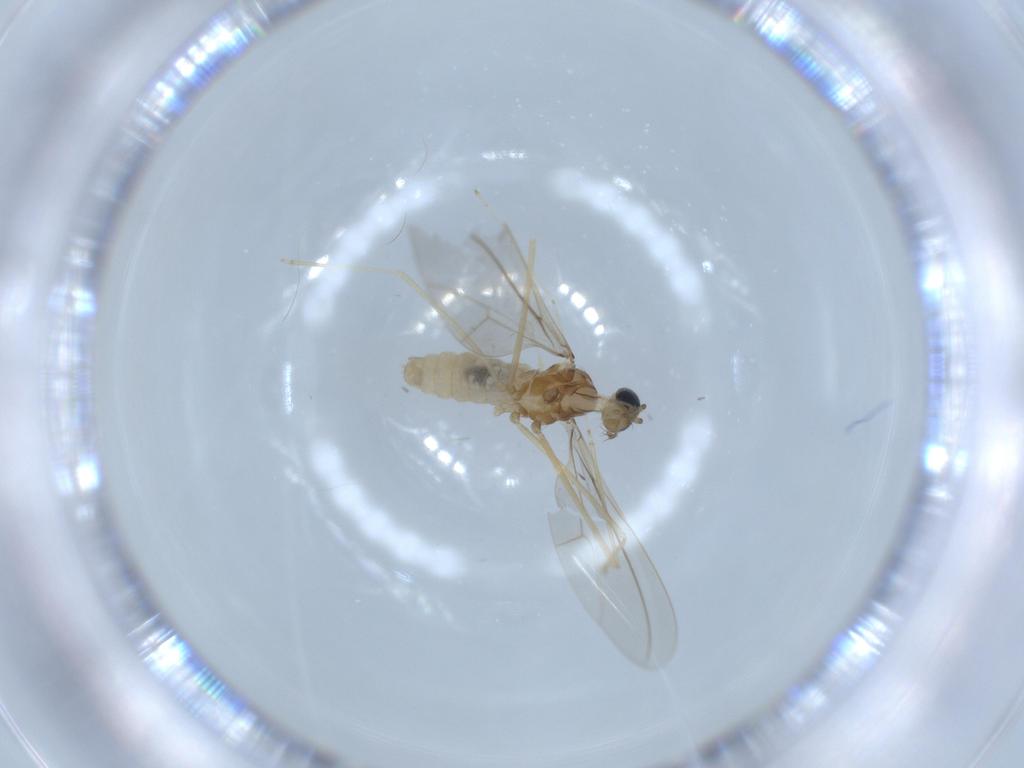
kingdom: Animalia
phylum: Arthropoda
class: Insecta
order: Diptera
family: Cecidomyiidae
